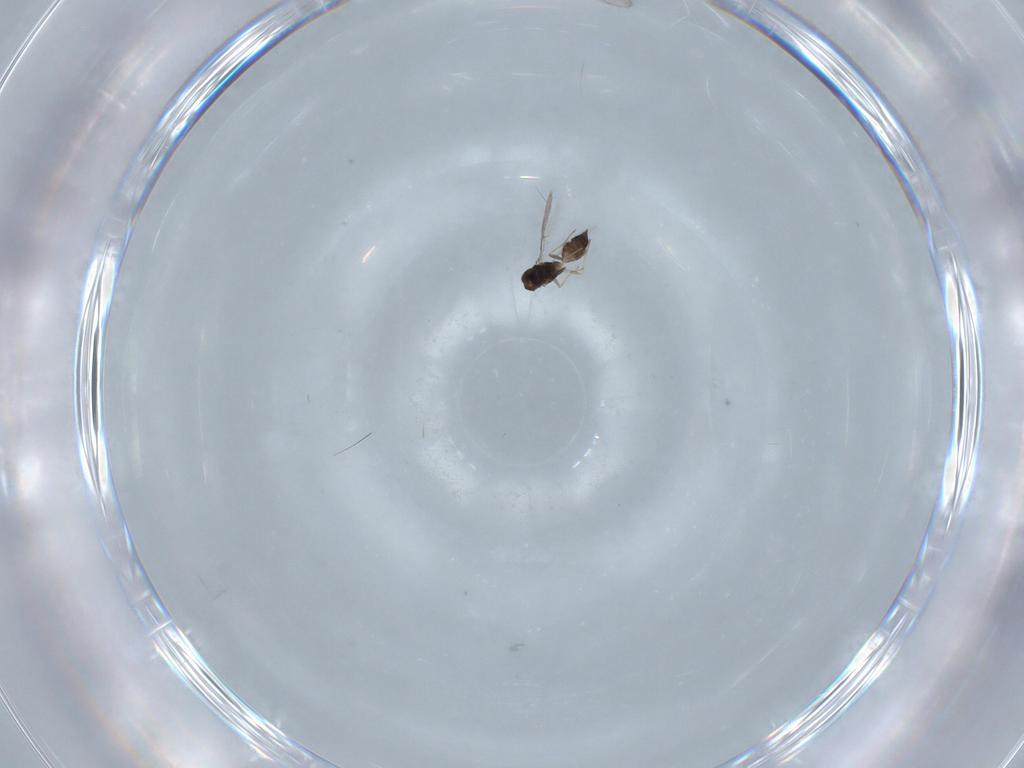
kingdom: Animalia
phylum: Arthropoda
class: Insecta
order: Hymenoptera
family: Eulophidae
